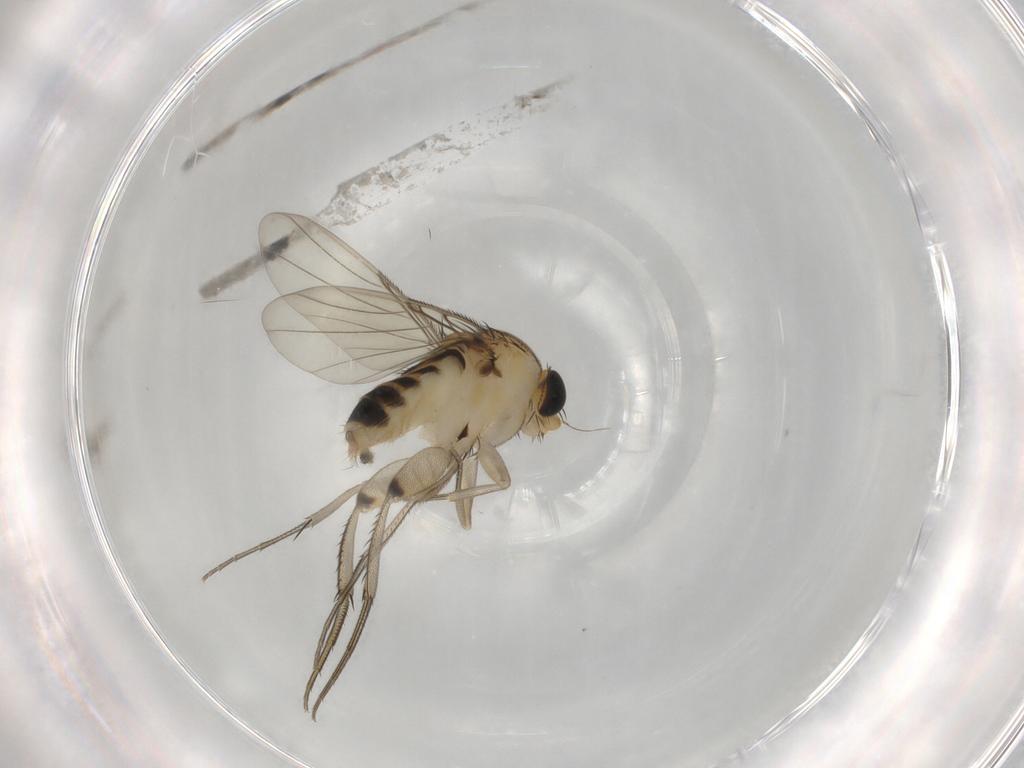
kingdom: Animalia
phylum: Arthropoda
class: Insecta
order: Diptera
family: Phoridae
